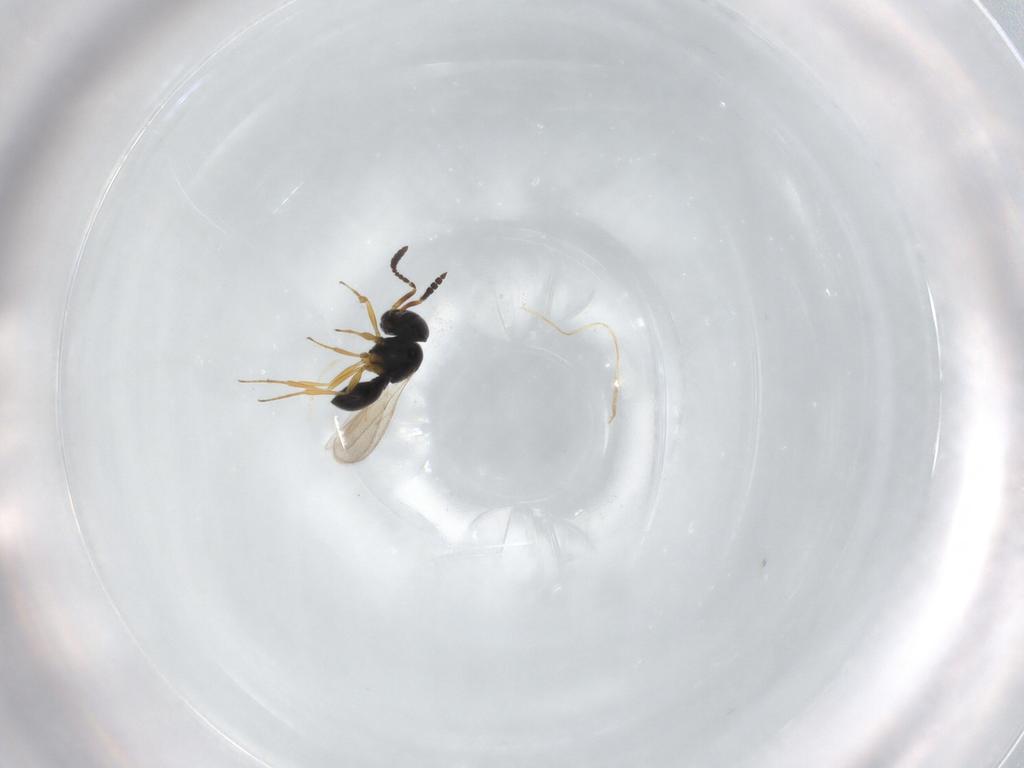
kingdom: Animalia
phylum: Arthropoda
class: Insecta
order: Hymenoptera
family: Scelionidae
